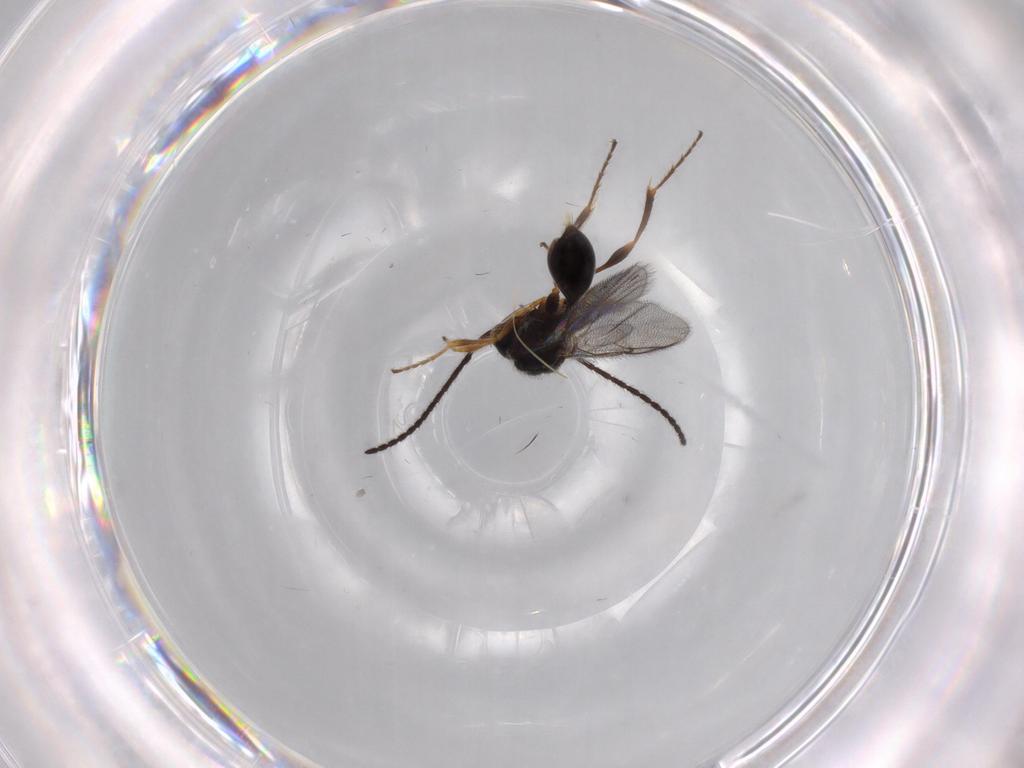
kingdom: Animalia
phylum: Arthropoda
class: Insecta
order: Hymenoptera
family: Diapriidae
